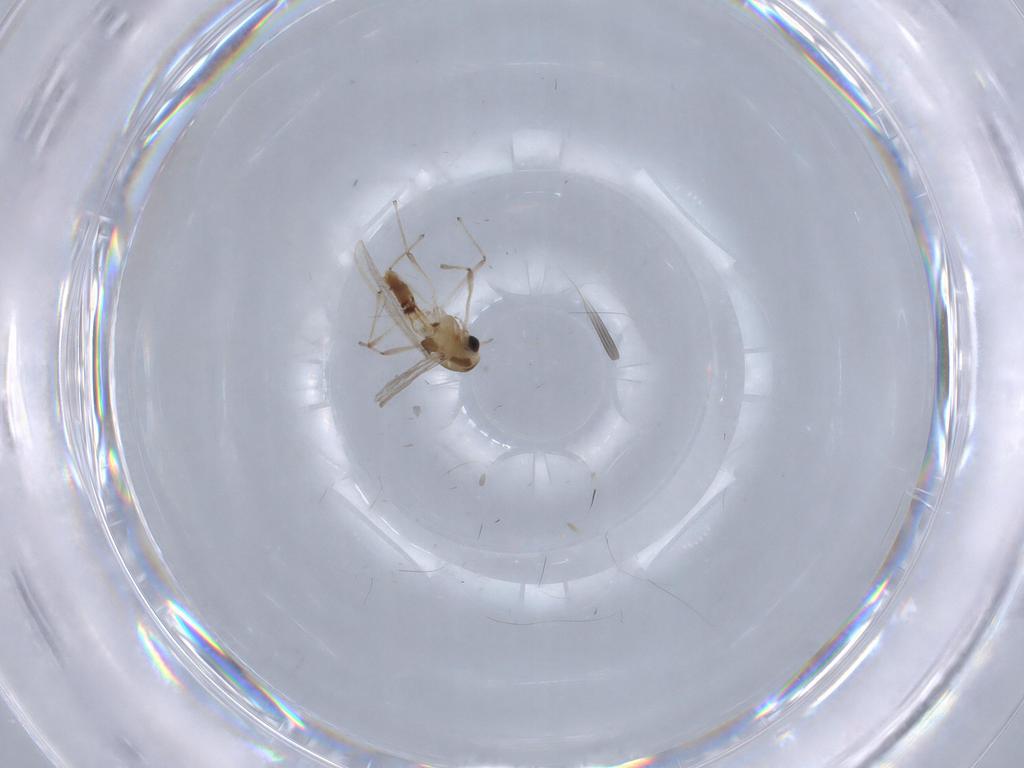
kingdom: Animalia
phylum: Arthropoda
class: Insecta
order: Diptera
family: Chironomidae
